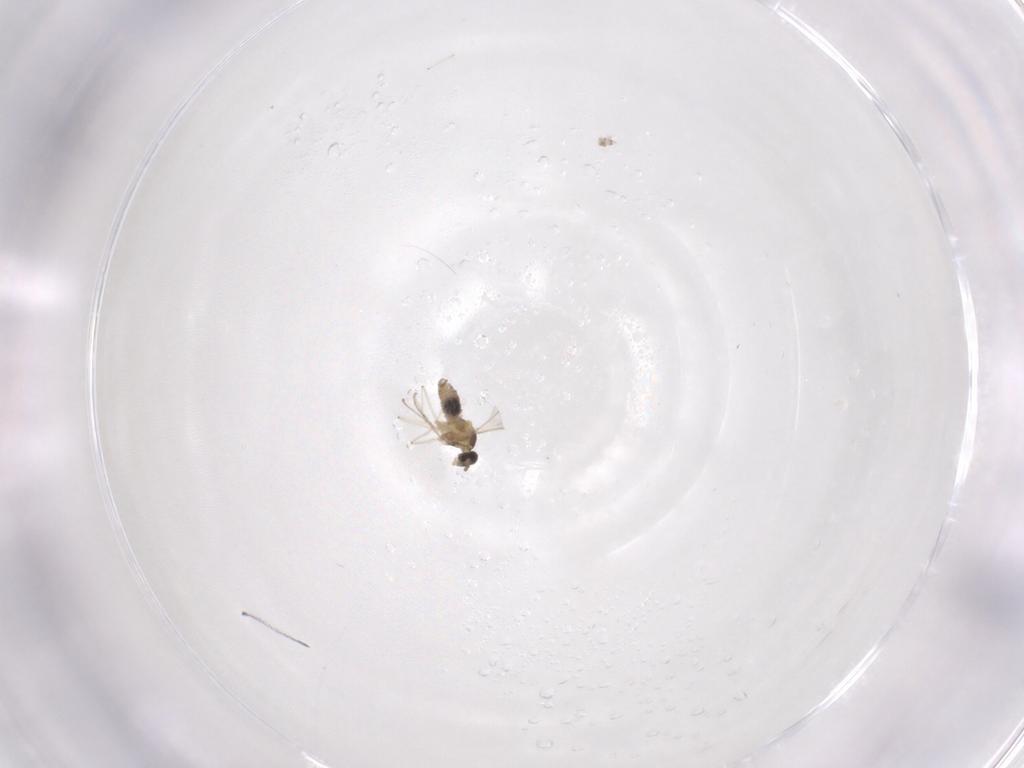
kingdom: Animalia
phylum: Arthropoda
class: Insecta
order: Diptera
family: Cecidomyiidae
